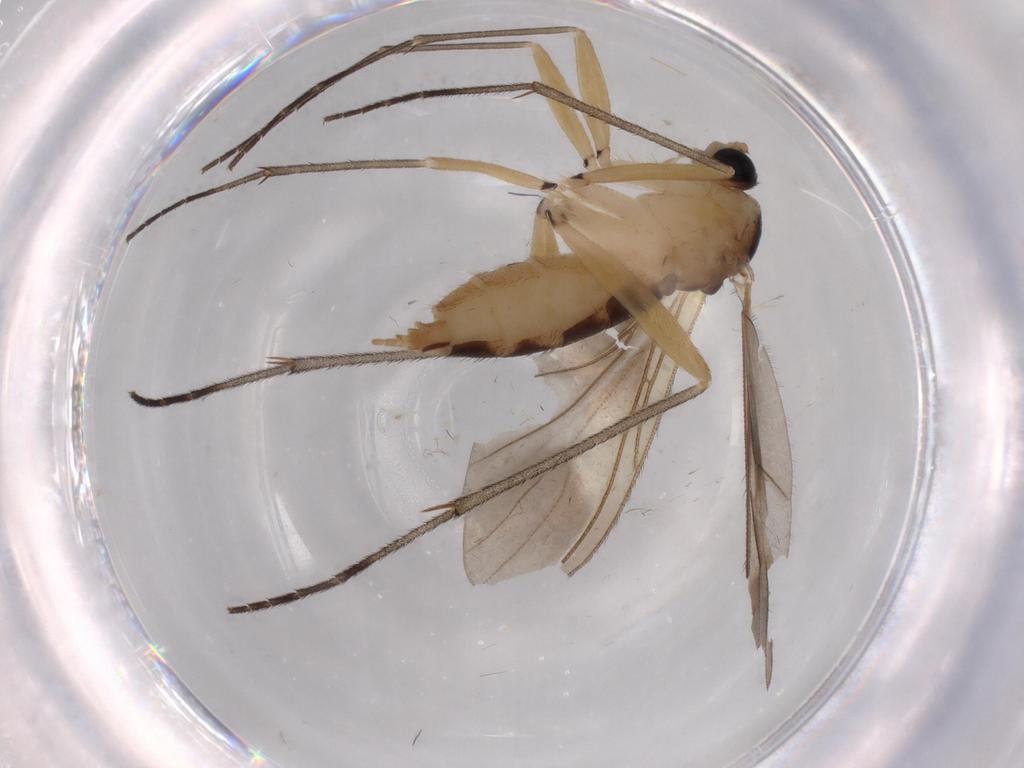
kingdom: Animalia
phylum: Arthropoda
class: Insecta
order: Diptera
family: Sciaridae
